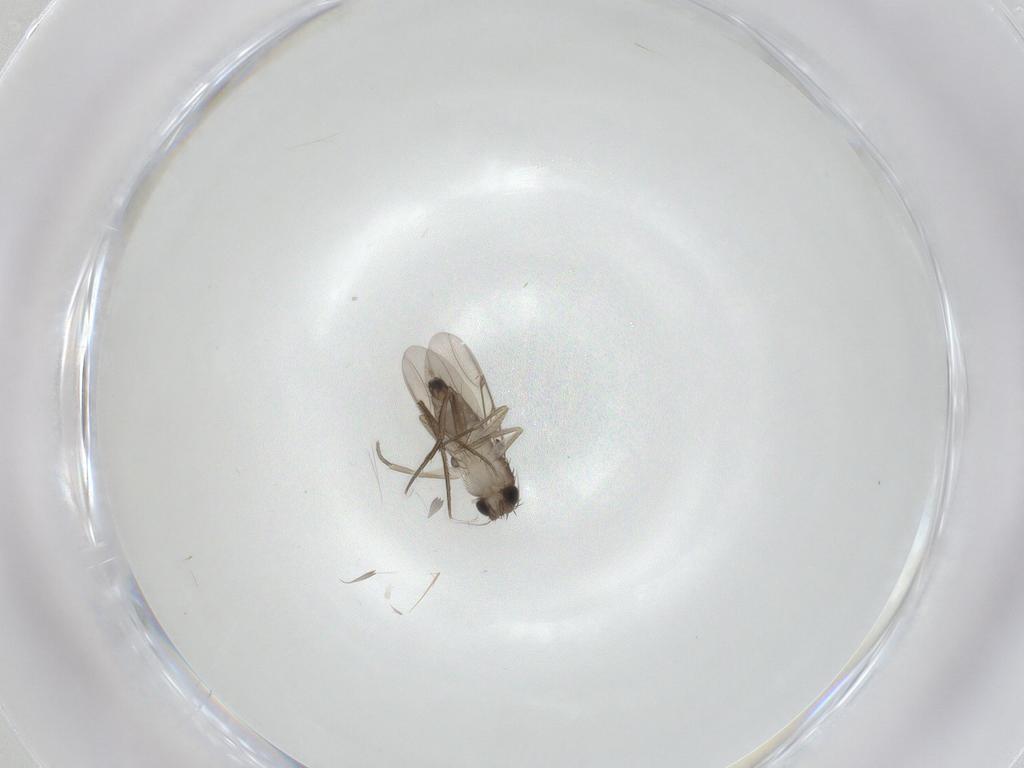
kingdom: Animalia
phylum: Arthropoda
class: Insecta
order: Diptera
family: Phoridae
